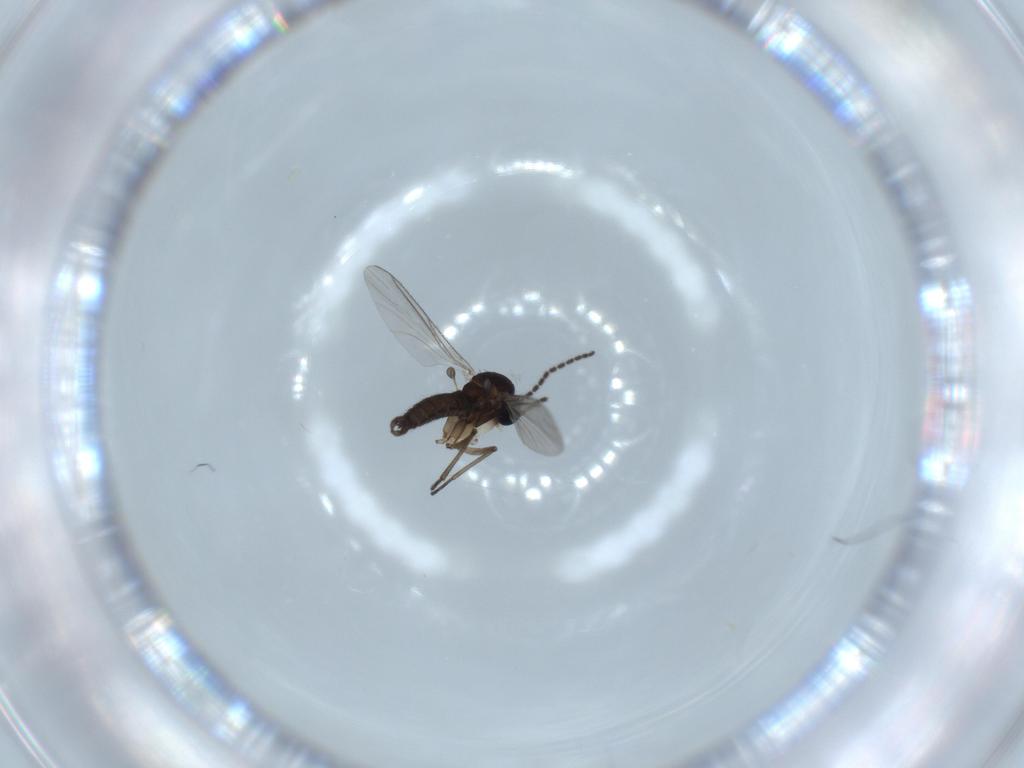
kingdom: Animalia
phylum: Arthropoda
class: Insecta
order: Diptera
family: Sciaridae
